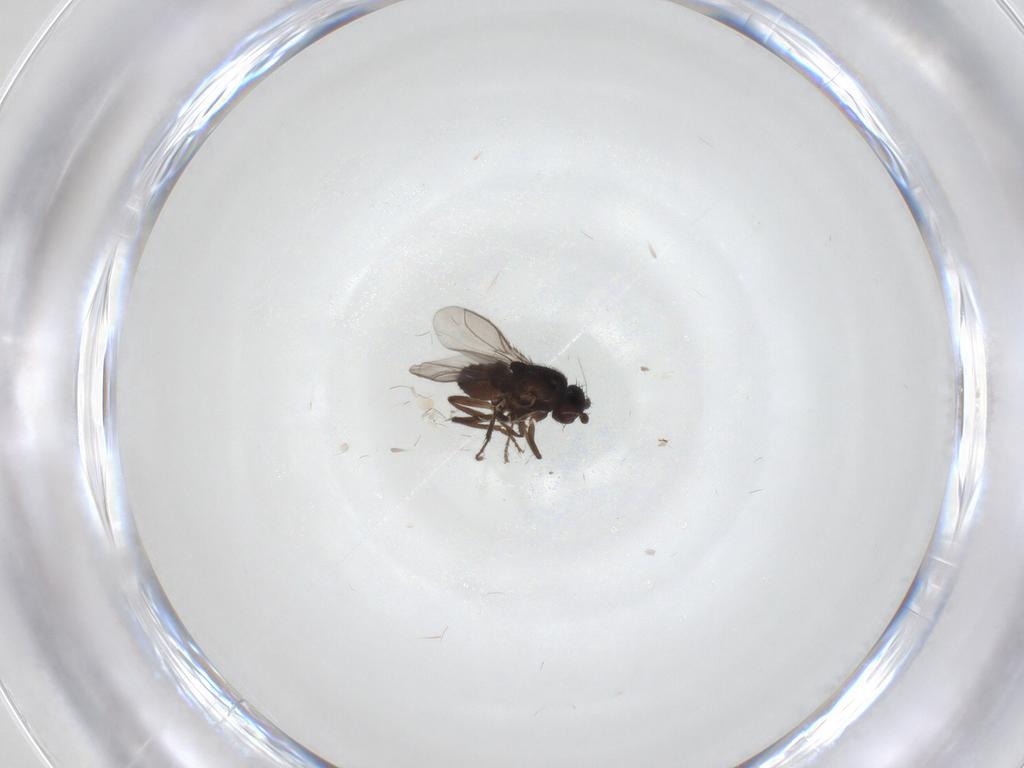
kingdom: Animalia
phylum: Arthropoda
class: Insecta
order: Diptera
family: Sphaeroceridae
